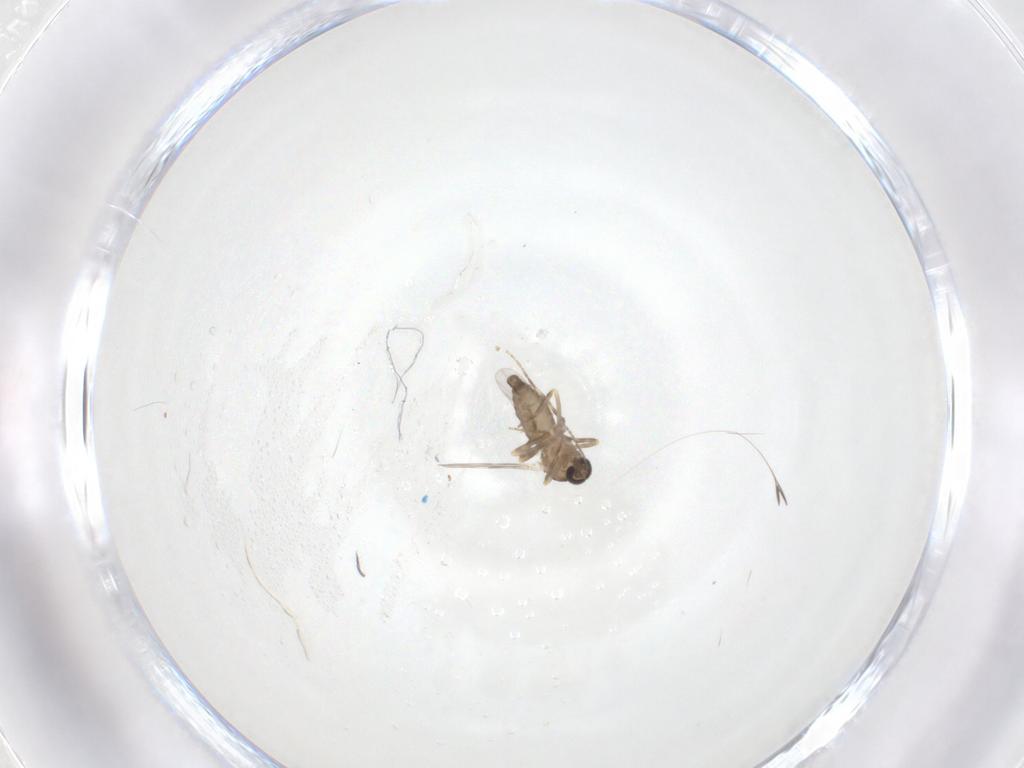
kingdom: Animalia
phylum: Arthropoda
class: Insecta
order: Diptera
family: Ceratopogonidae
